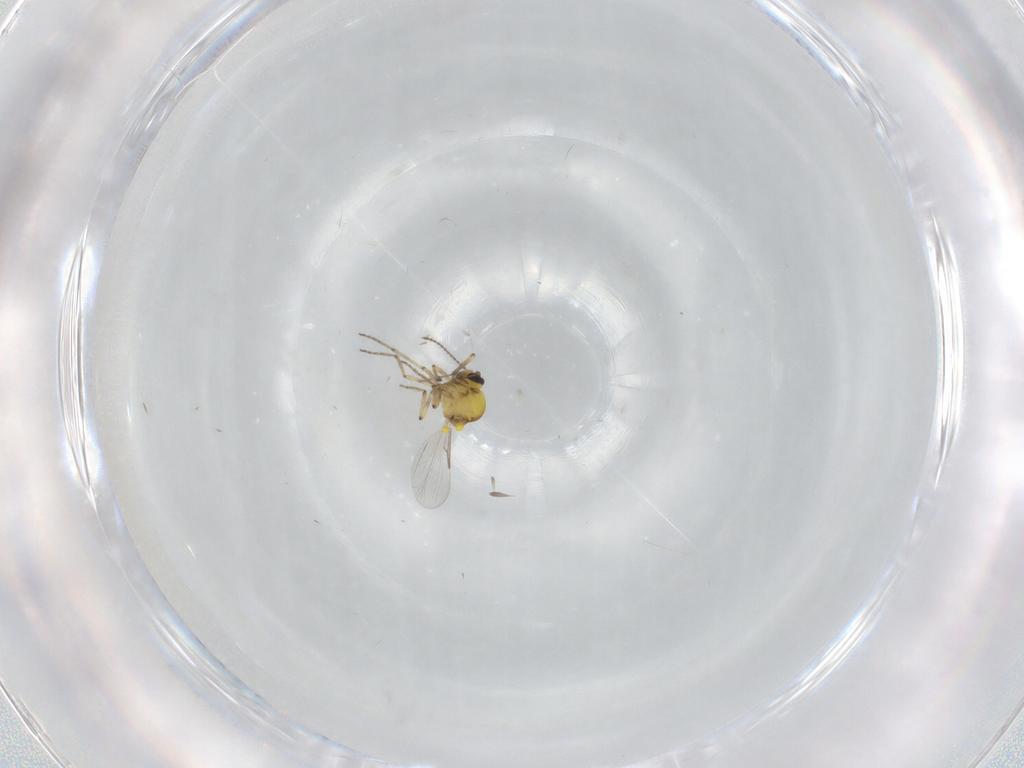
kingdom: Animalia
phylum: Arthropoda
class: Insecta
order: Diptera
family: Ceratopogonidae
